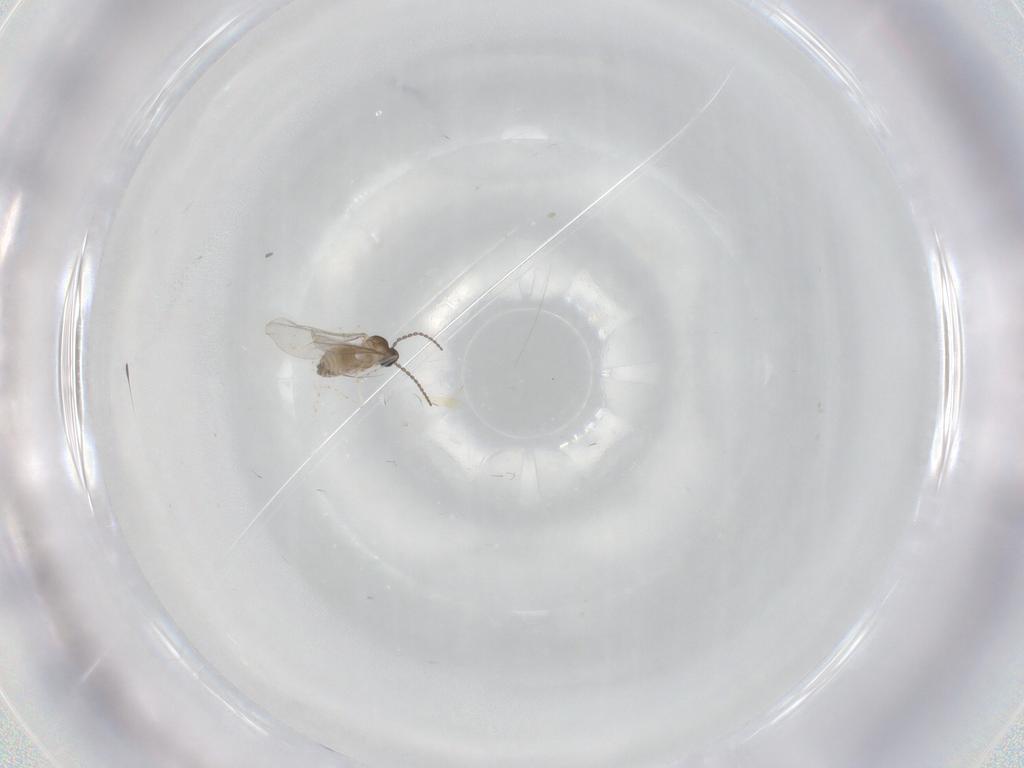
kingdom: Animalia
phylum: Arthropoda
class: Insecta
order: Diptera
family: Cecidomyiidae
